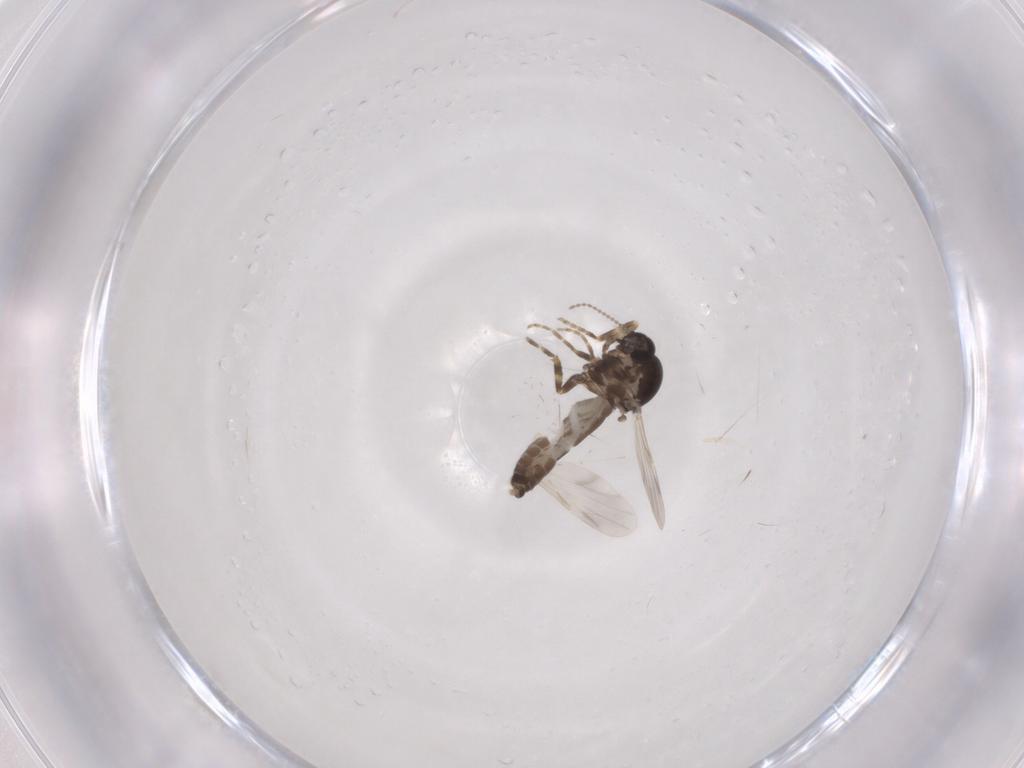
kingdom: Animalia
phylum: Arthropoda
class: Insecta
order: Diptera
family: Ceratopogonidae
